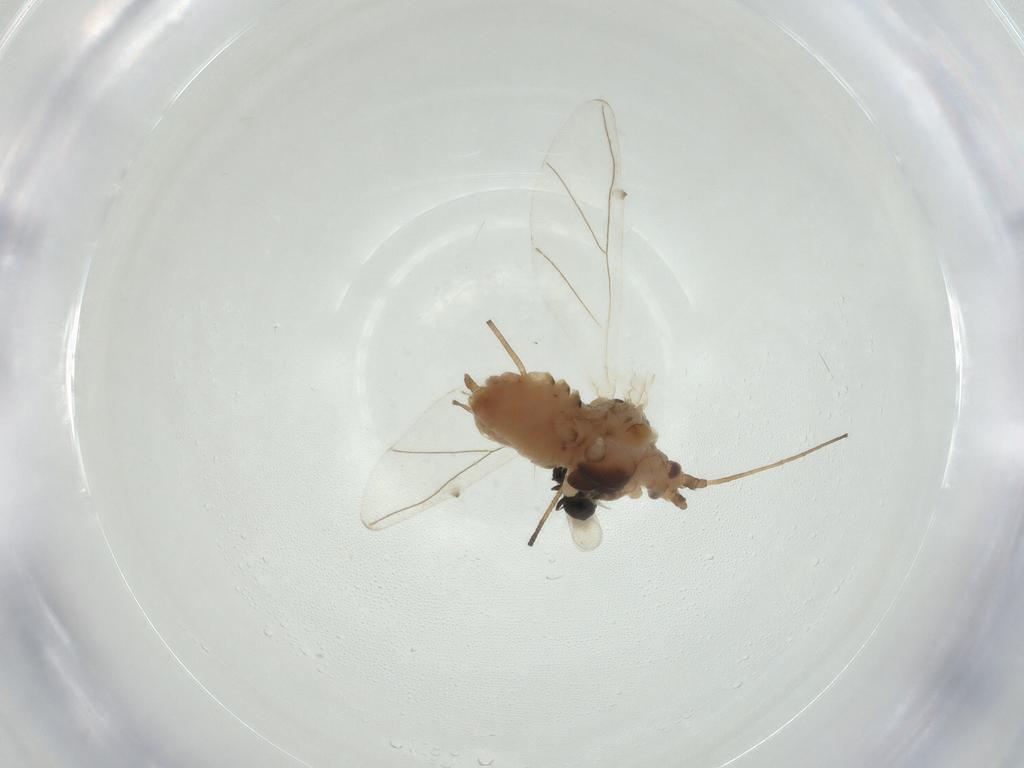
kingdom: Animalia
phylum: Arthropoda
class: Insecta
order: Hemiptera
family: Aphididae
